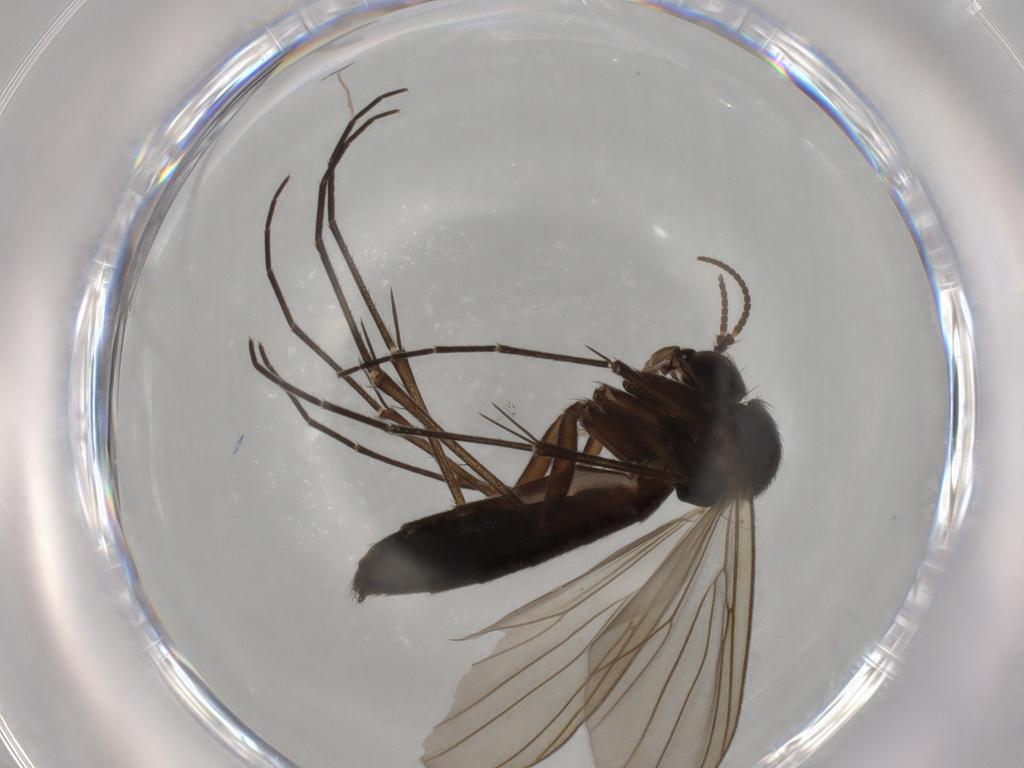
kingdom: Animalia
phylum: Arthropoda
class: Insecta
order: Diptera
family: Mycetophilidae
